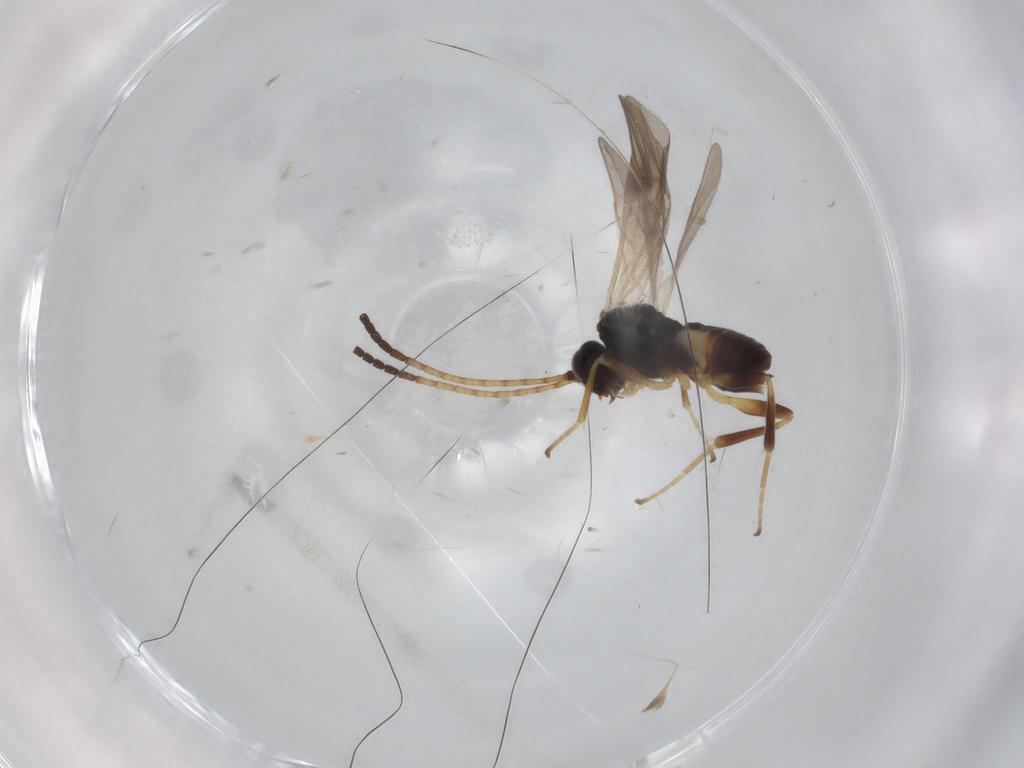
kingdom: Animalia
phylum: Arthropoda
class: Insecta
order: Hymenoptera
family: Braconidae
